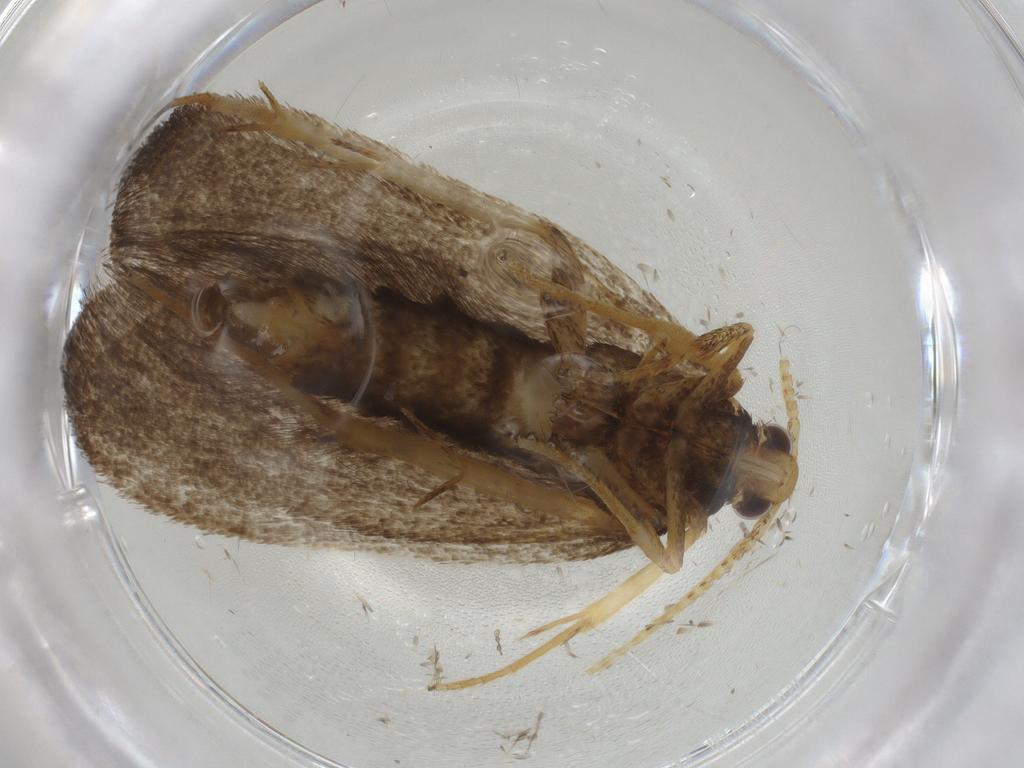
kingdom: Animalia
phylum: Arthropoda
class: Insecta
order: Lepidoptera
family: Lecithoceridae
